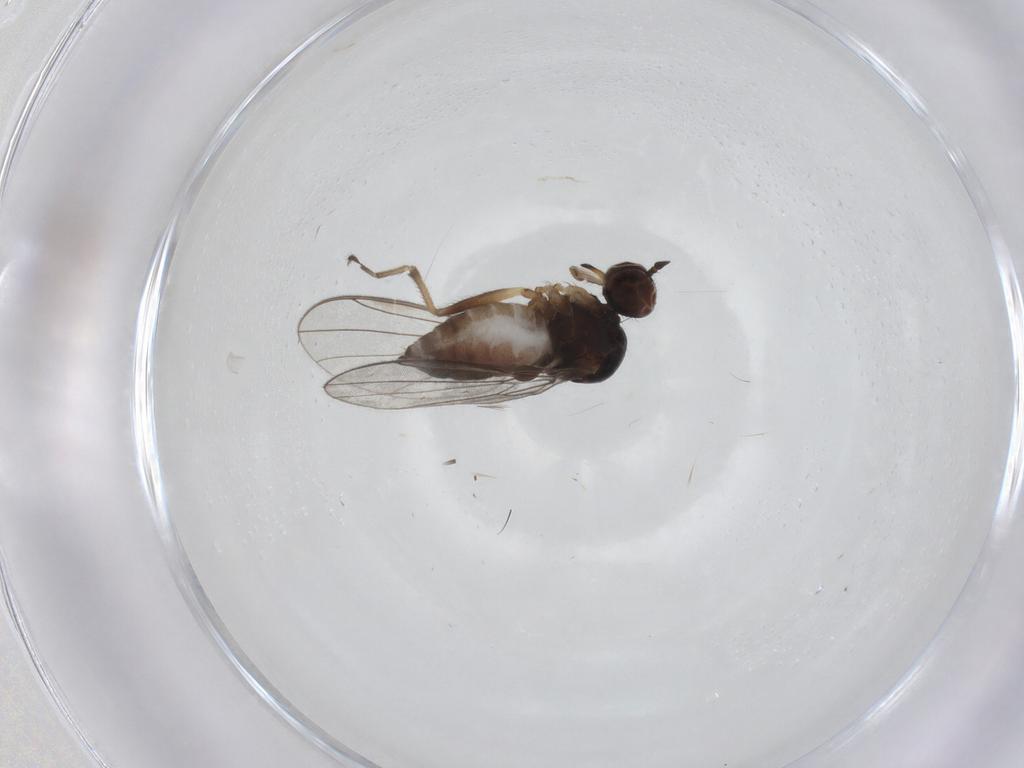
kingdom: Animalia
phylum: Arthropoda
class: Insecta
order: Diptera
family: Empididae
